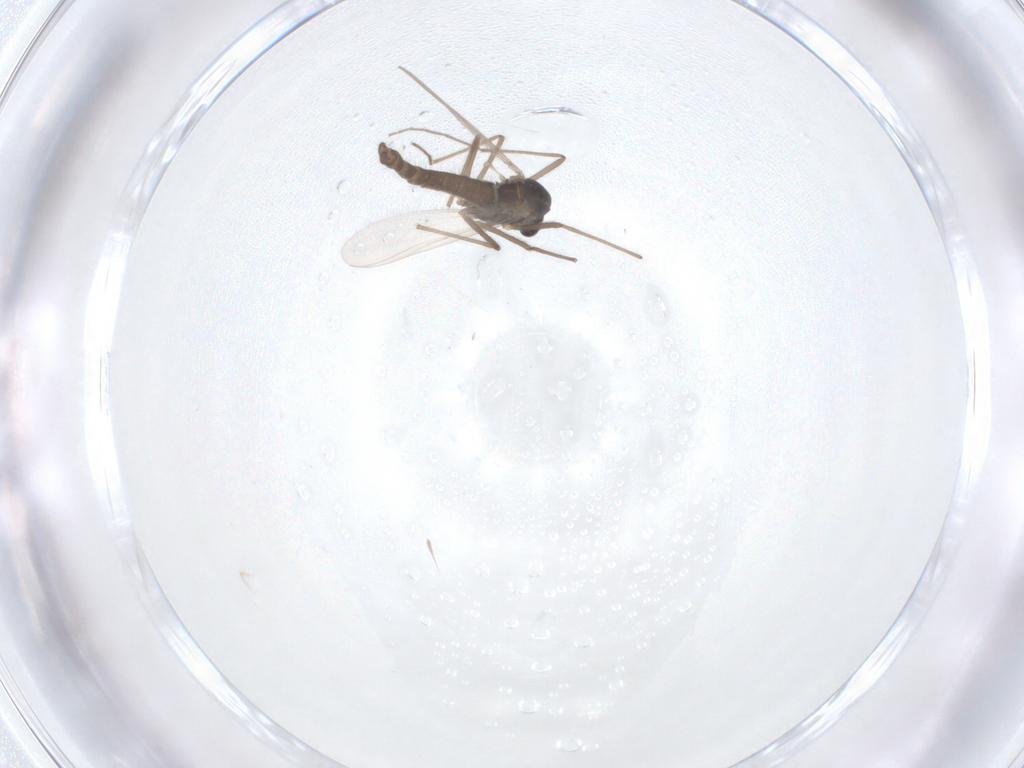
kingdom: Animalia
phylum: Arthropoda
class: Insecta
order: Diptera
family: Chironomidae
